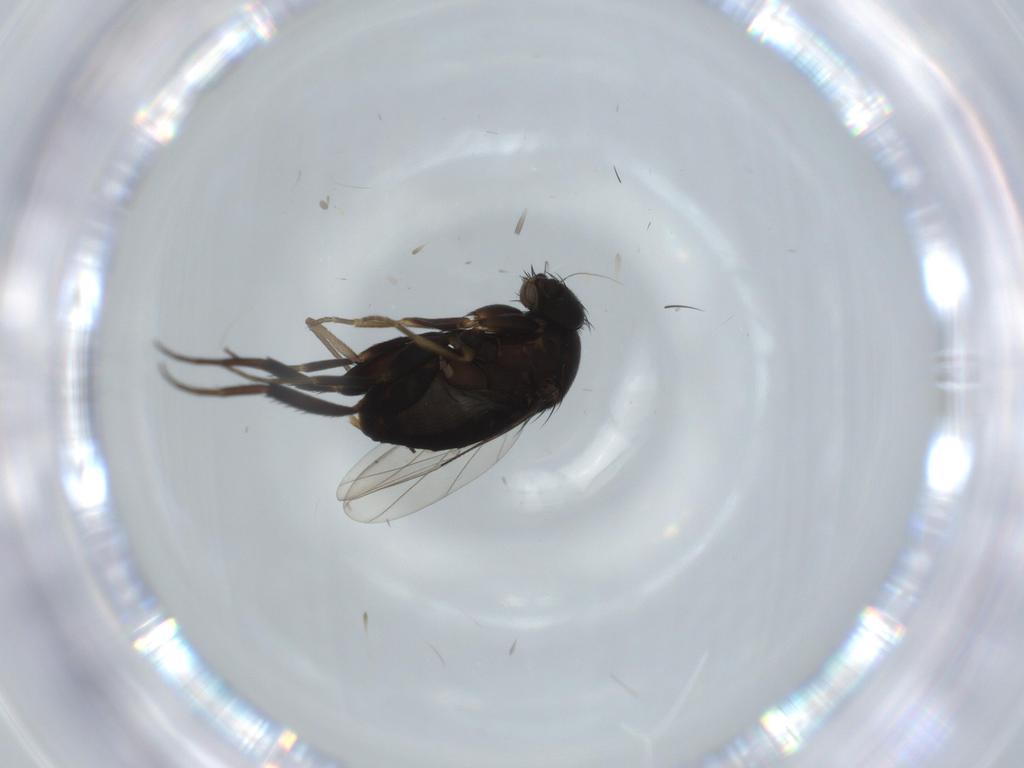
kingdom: Animalia
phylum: Arthropoda
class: Insecta
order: Diptera
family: Phoridae
